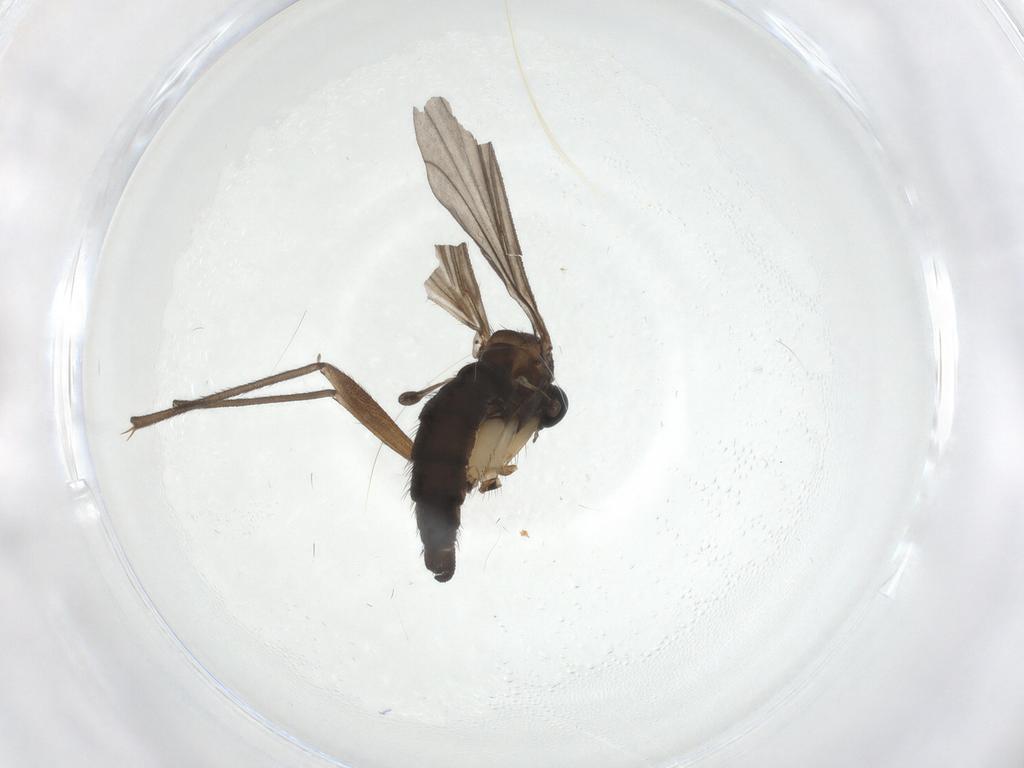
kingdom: Animalia
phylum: Arthropoda
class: Insecta
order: Diptera
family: Sciaridae
